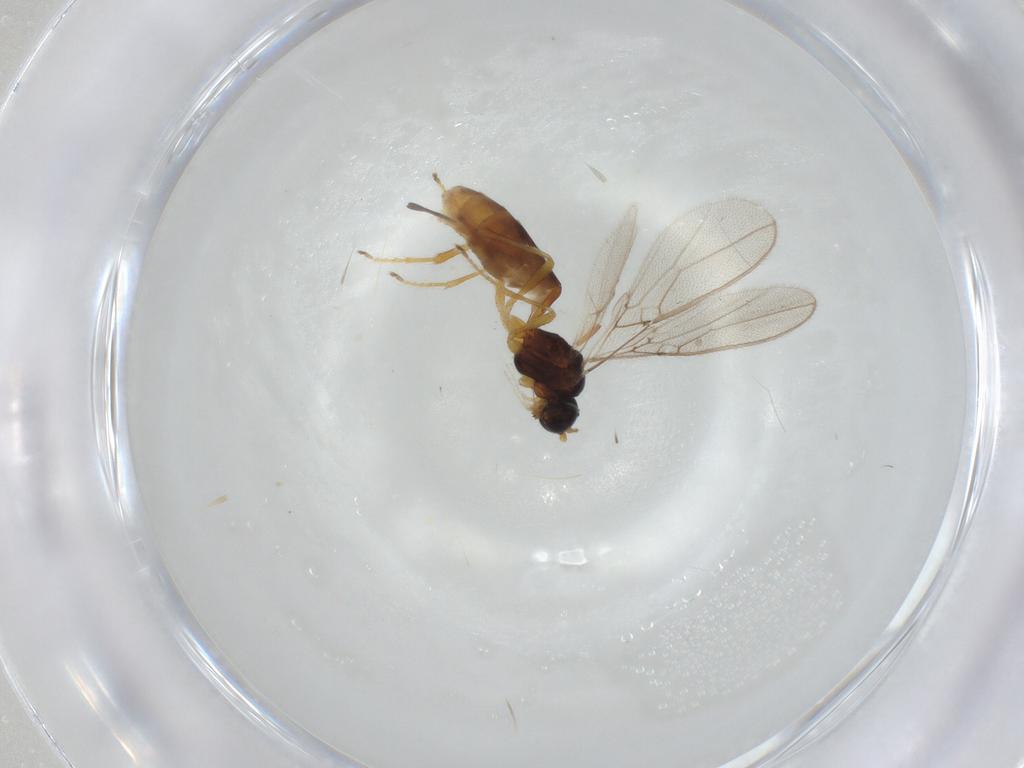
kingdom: Animalia
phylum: Arthropoda
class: Insecta
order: Hymenoptera
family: Braconidae
